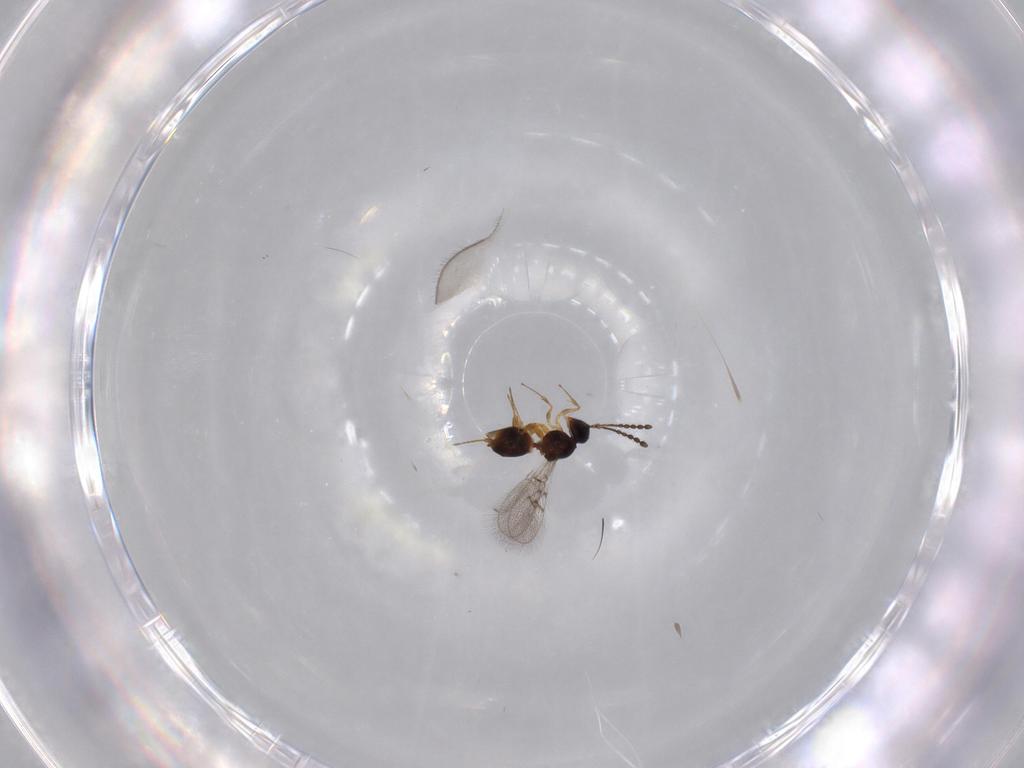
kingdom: Animalia
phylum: Arthropoda
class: Insecta
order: Hymenoptera
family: Figitidae
